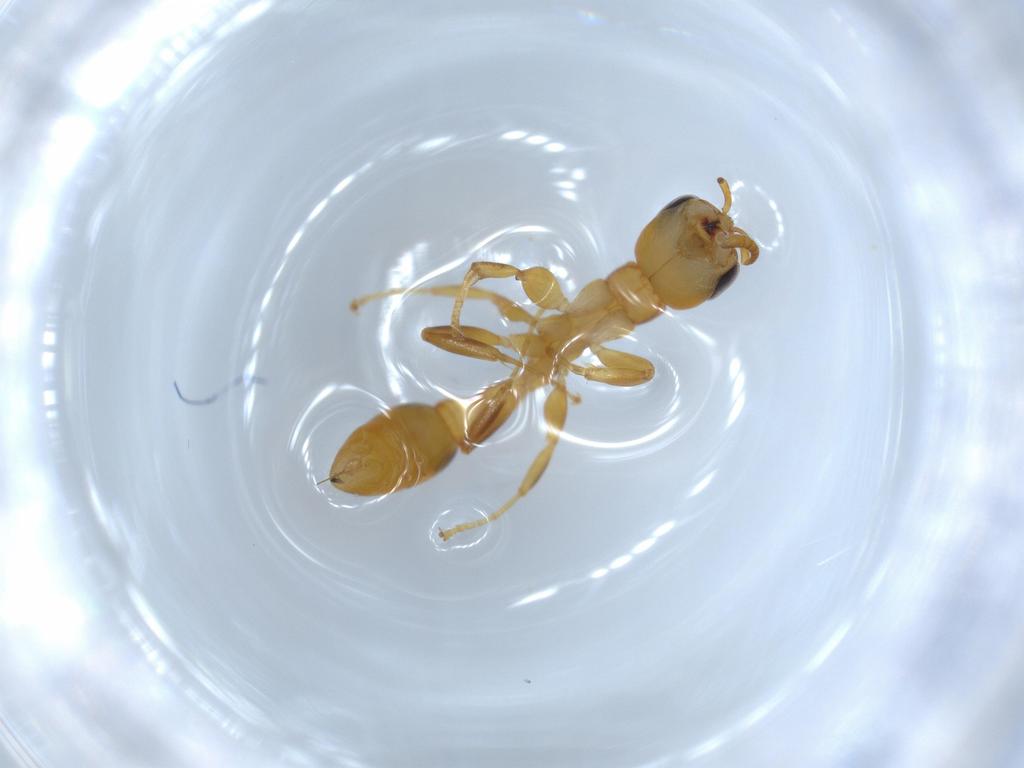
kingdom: Animalia
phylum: Arthropoda
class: Insecta
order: Hymenoptera
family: Formicidae
